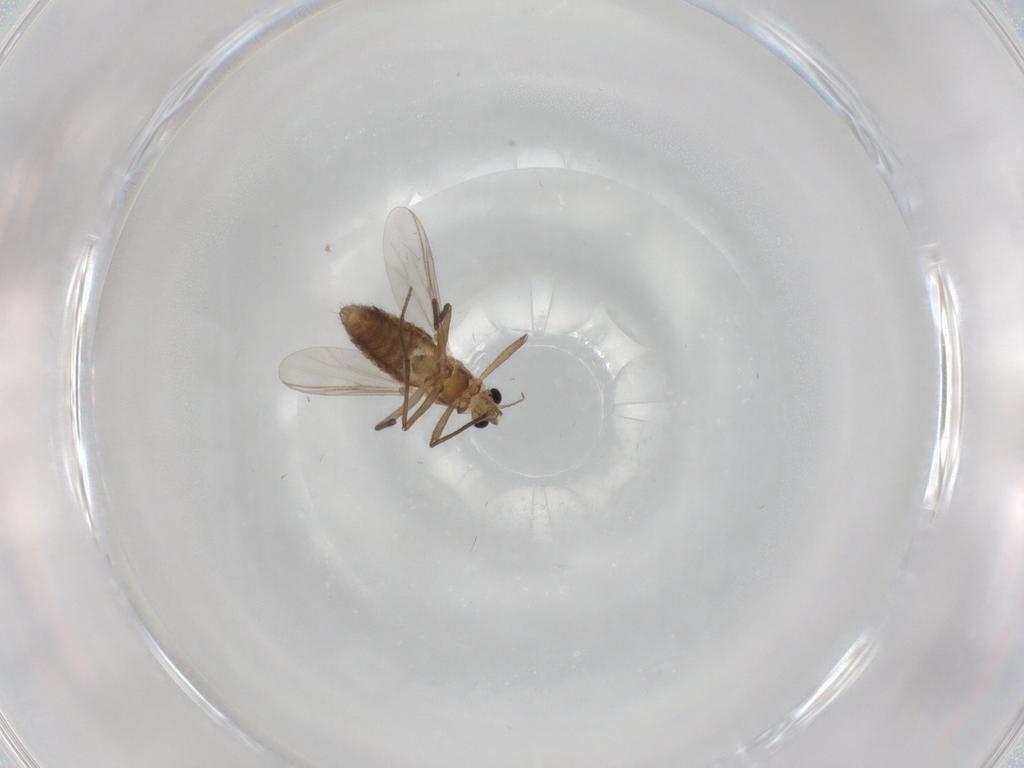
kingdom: Animalia
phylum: Arthropoda
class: Insecta
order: Diptera
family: Chironomidae
